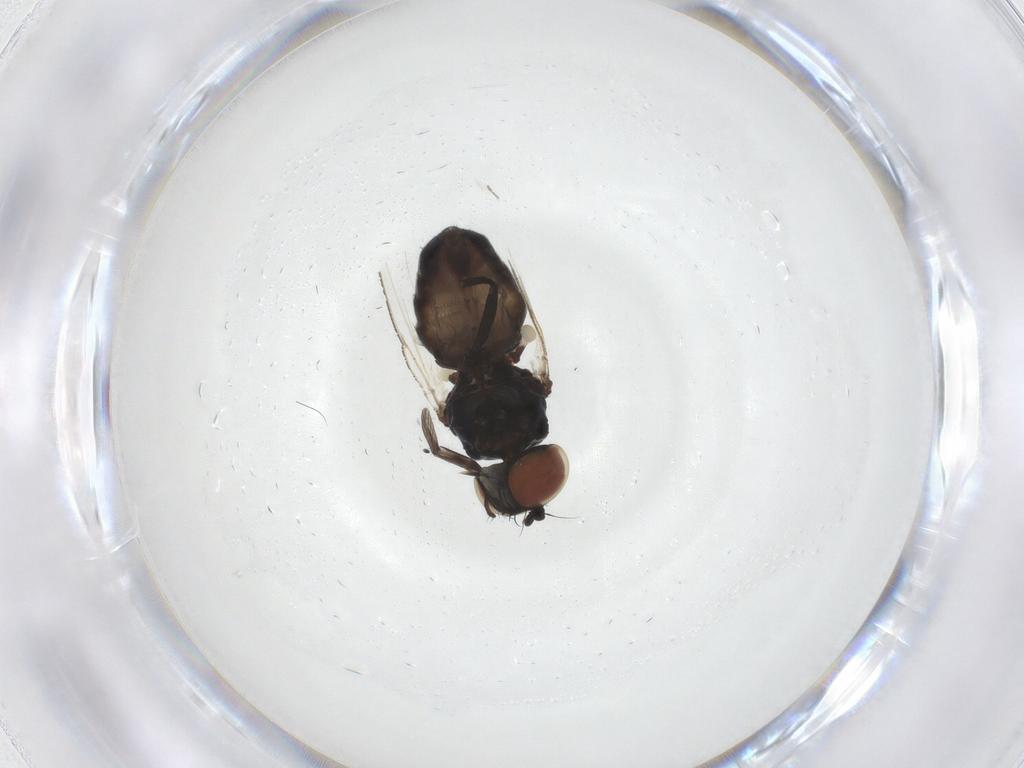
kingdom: Animalia
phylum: Arthropoda
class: Insecta
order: Diptera
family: Milichiidae
